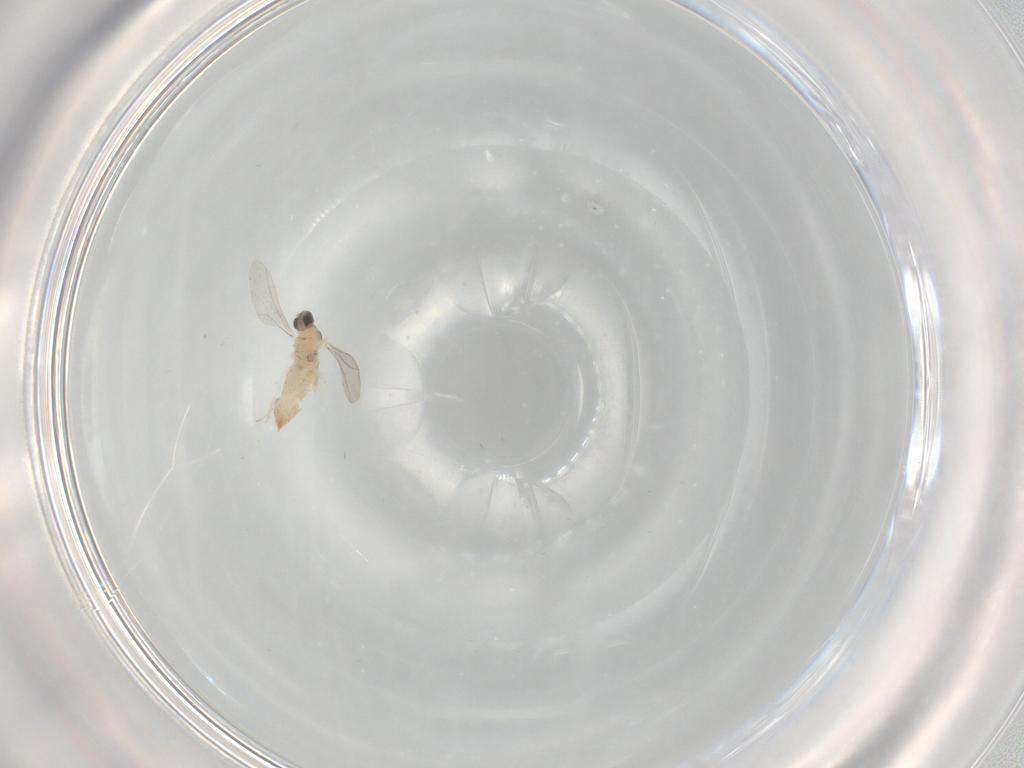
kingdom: Animalia
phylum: Arthropoda
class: Insecta
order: Diptera
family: Cecidomyiidae
